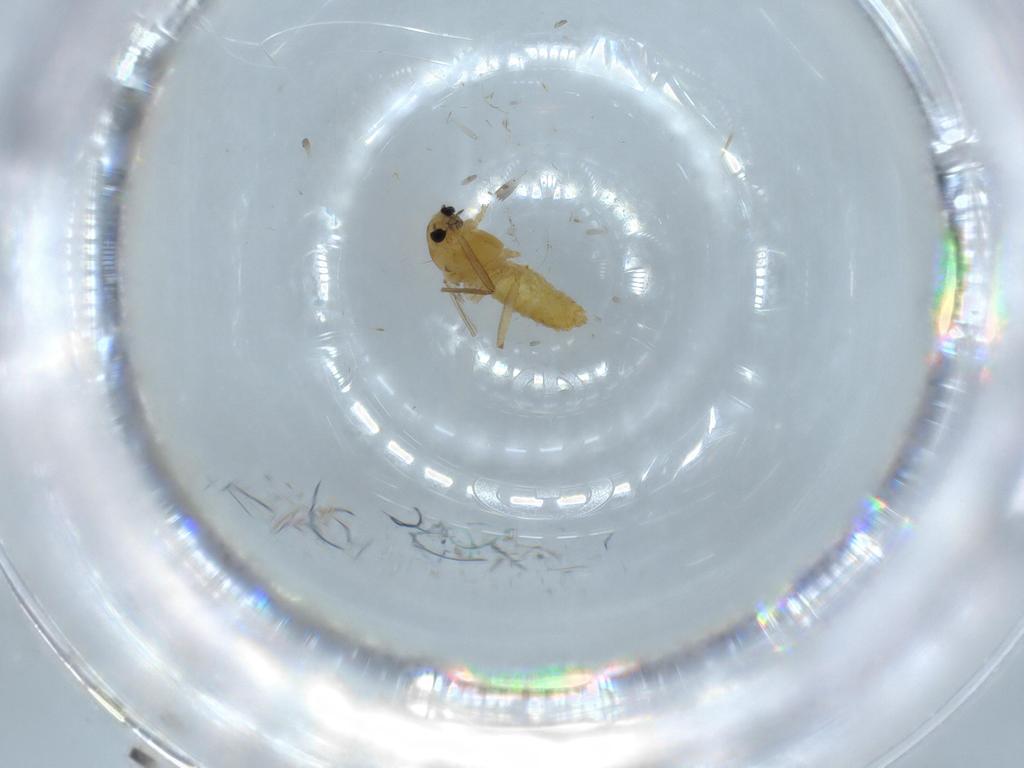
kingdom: Animalia
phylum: Arthropoda
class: Insecta
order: Diptera
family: Chironomidae
